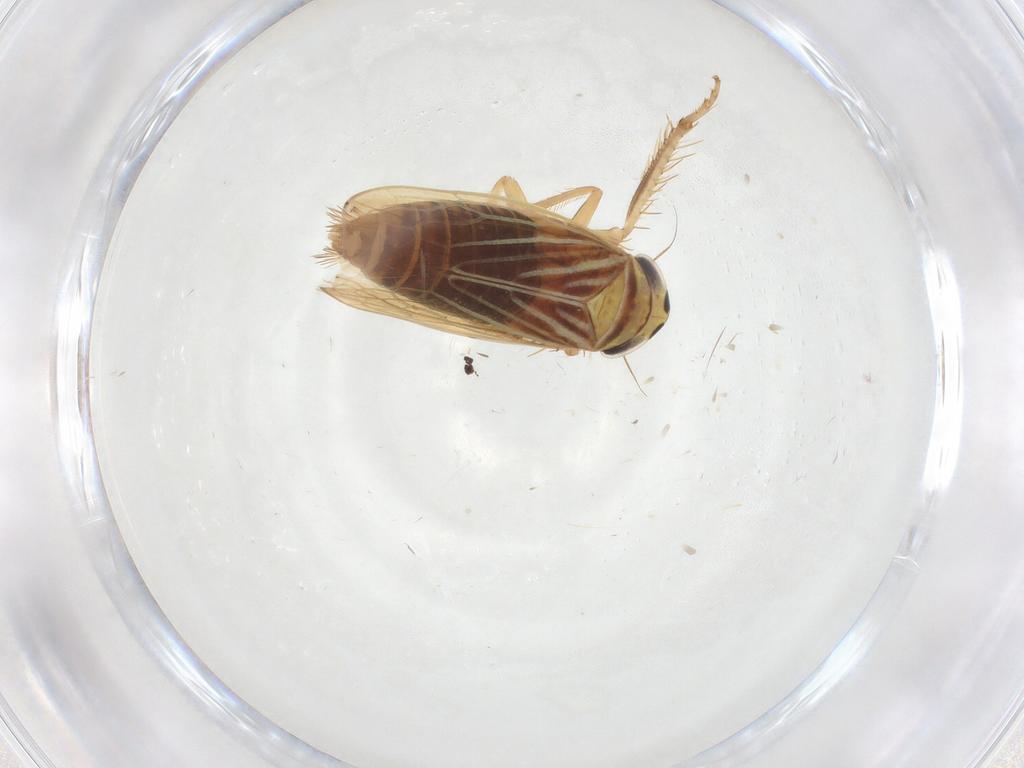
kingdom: Animalia
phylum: Arthropoda
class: Insecta
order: Hemiptera
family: Cicadellidae
